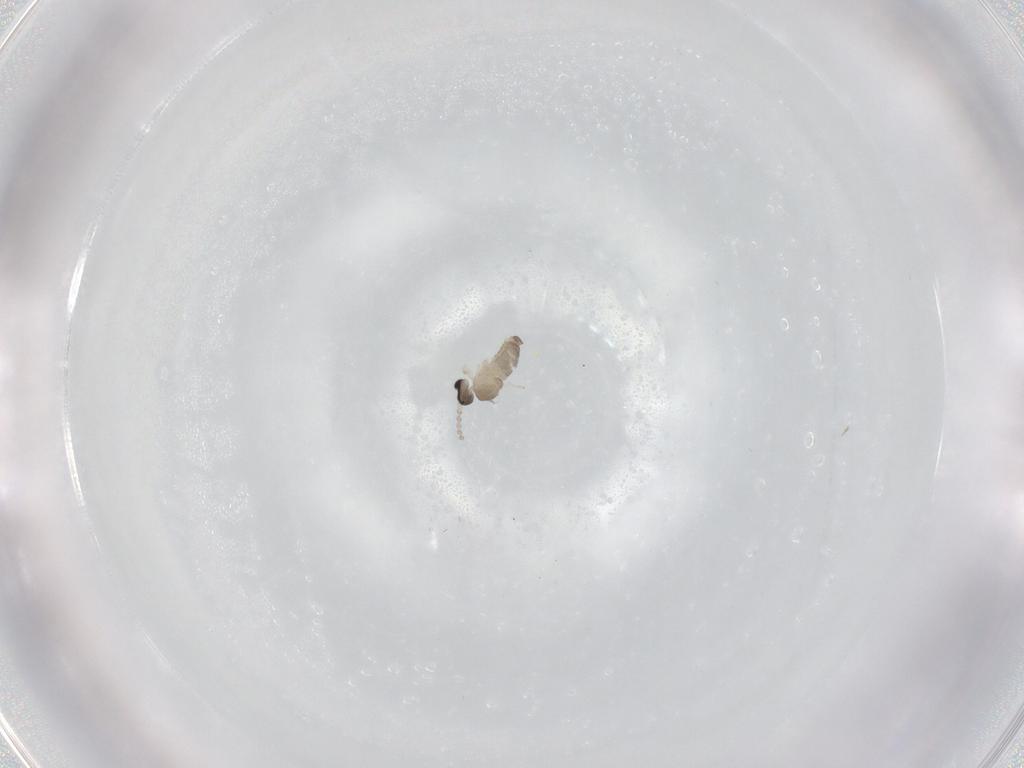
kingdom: Animalia
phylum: Arthropoda
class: Insecta
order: Diptera
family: Cecidomyiidae
